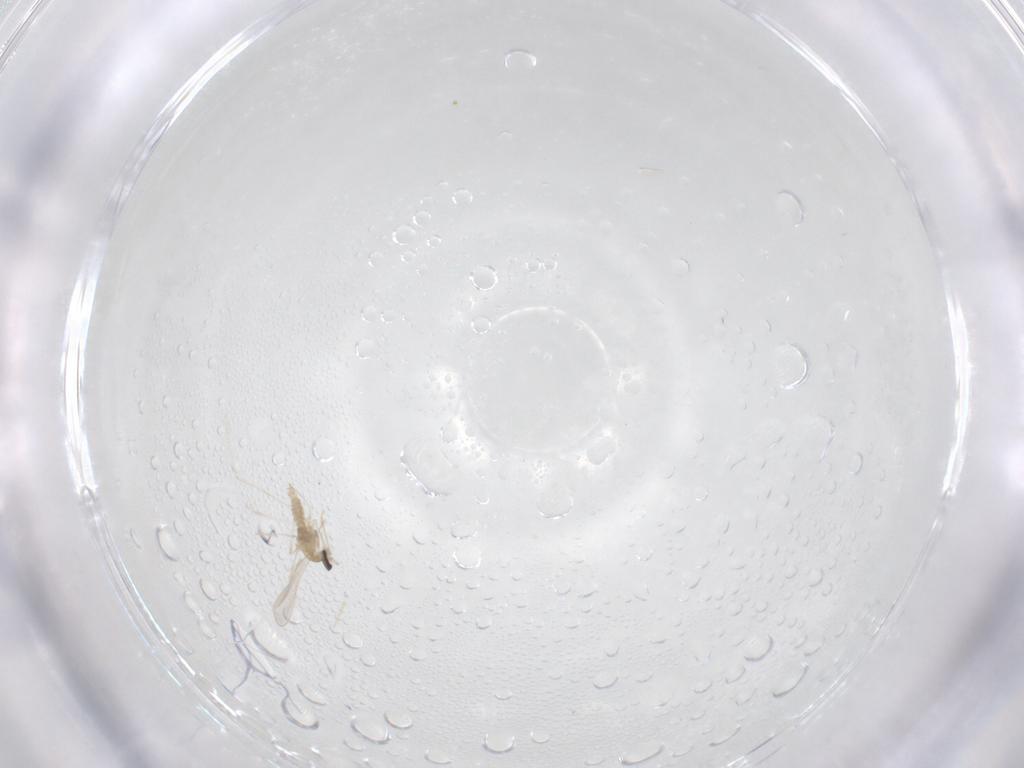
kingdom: Animalia
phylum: Arthropoda
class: Insecta
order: Diptera
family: Cecidomyiidae
